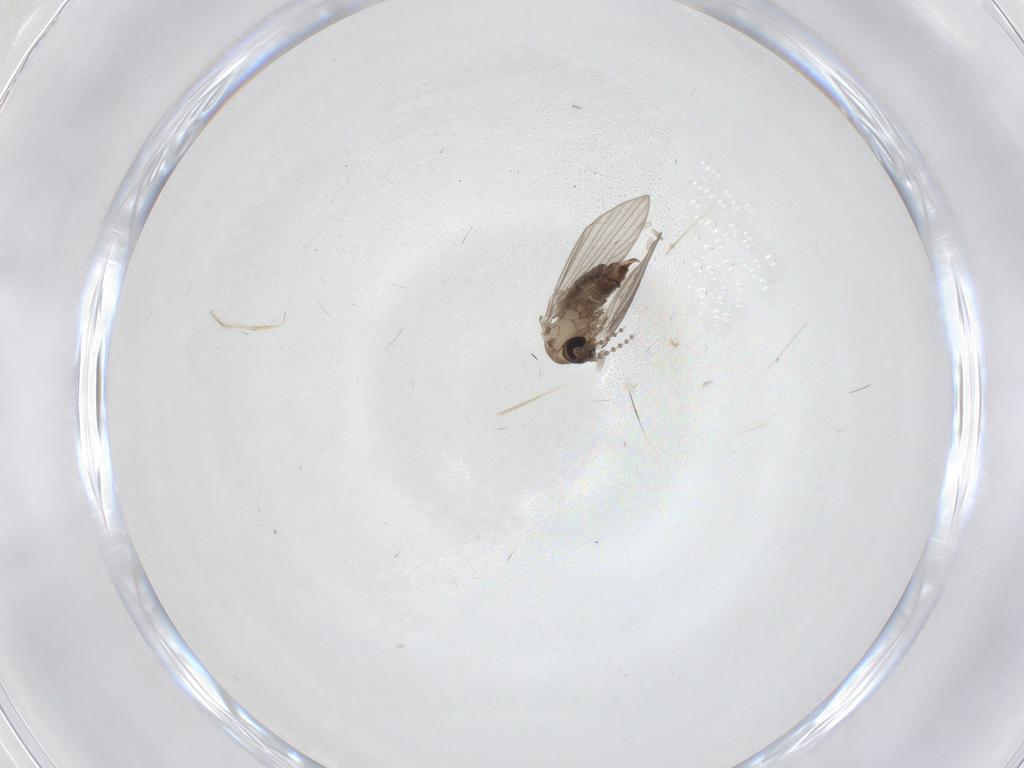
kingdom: Animalia
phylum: Arthropoda
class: Insecta
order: Diptera
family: Psychodidae
